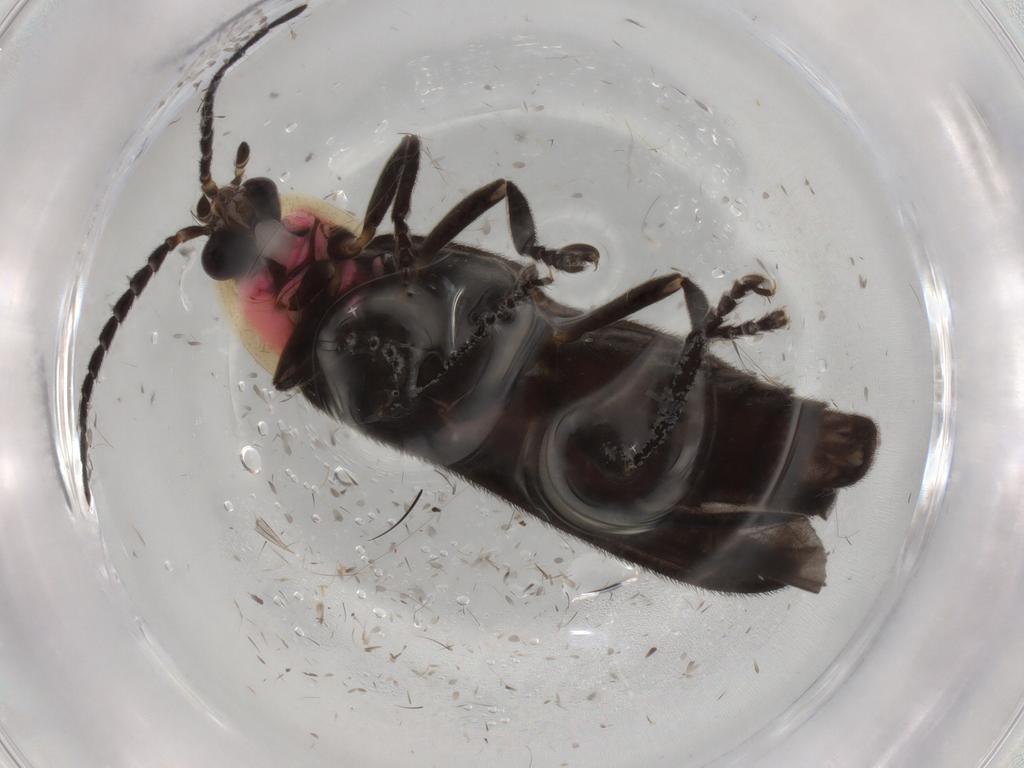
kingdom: Animalia
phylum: Arthropoda
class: Insecta
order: Coleoptera
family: Lampyridae
